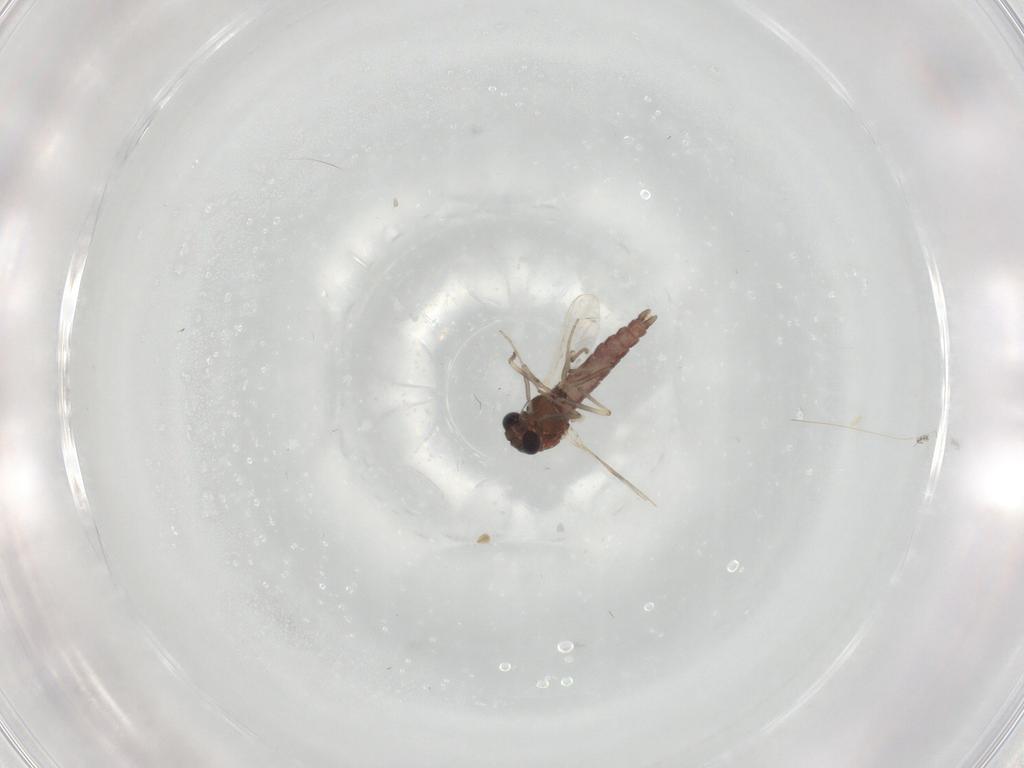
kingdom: Animalia
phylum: Arthropoda
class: Insecta
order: Diptera
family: Chironomidae
